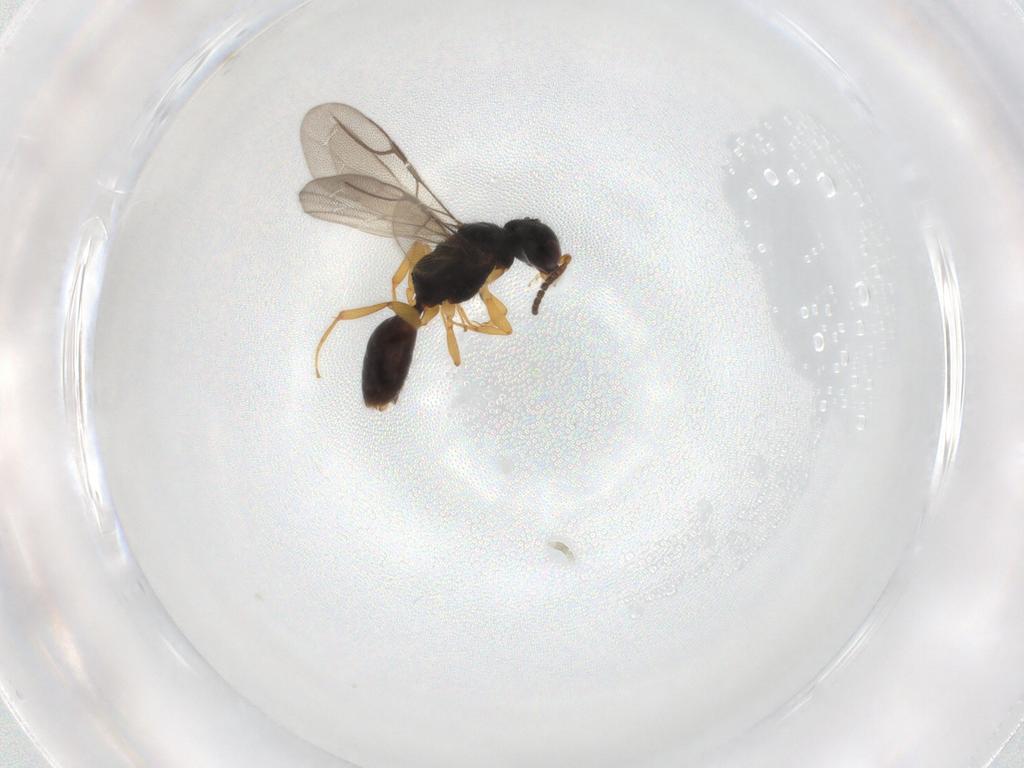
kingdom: Animalia
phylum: Arthropoda
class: Insecta
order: Hymenoptera
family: Bethylidae
